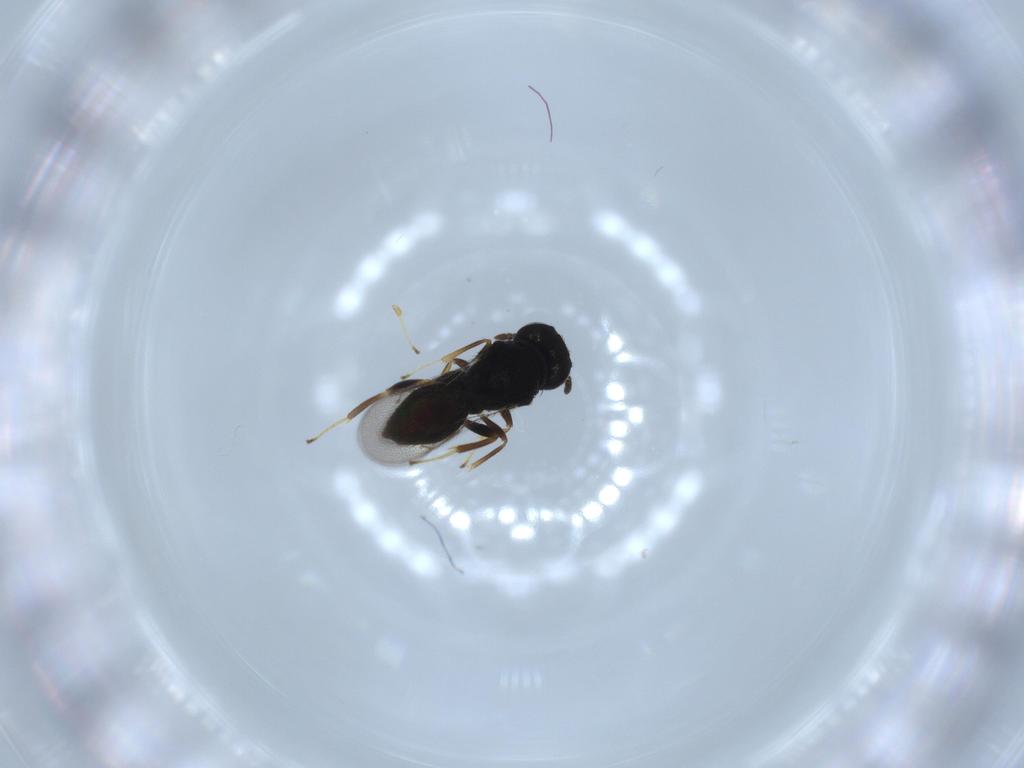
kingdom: Animalia
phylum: Arthropoda
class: Insecta
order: Hymenoptera
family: Pteromalidae
